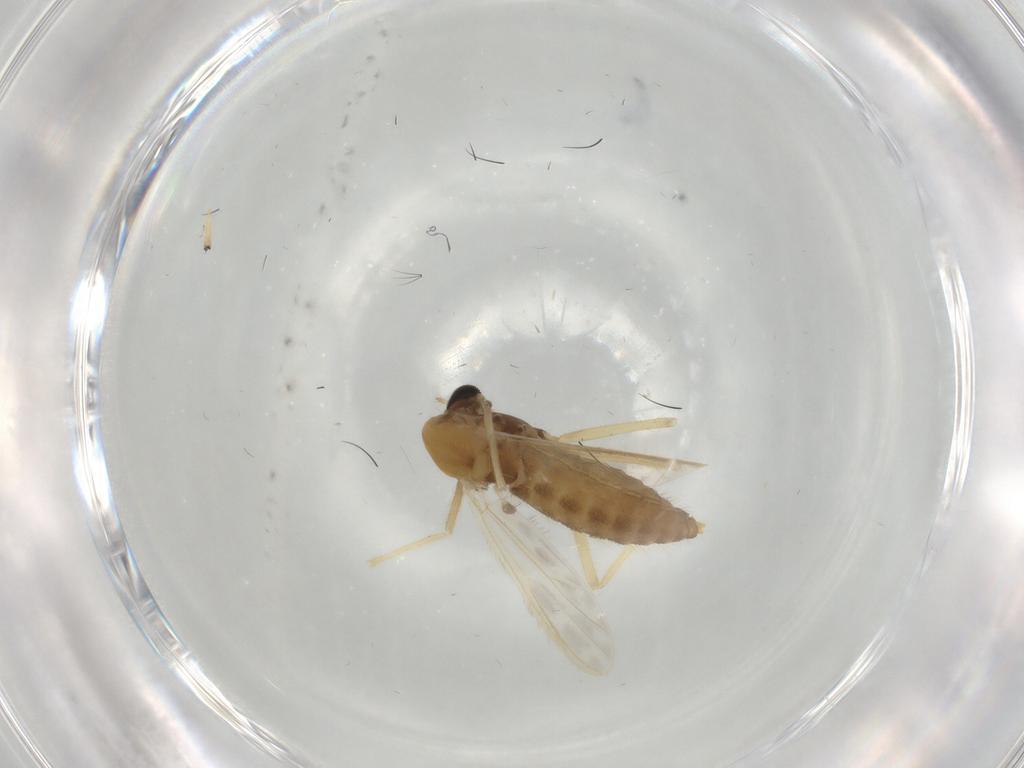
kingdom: Animalia
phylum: Arthropoda
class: Insecta
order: Diptera
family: Chironomidae
